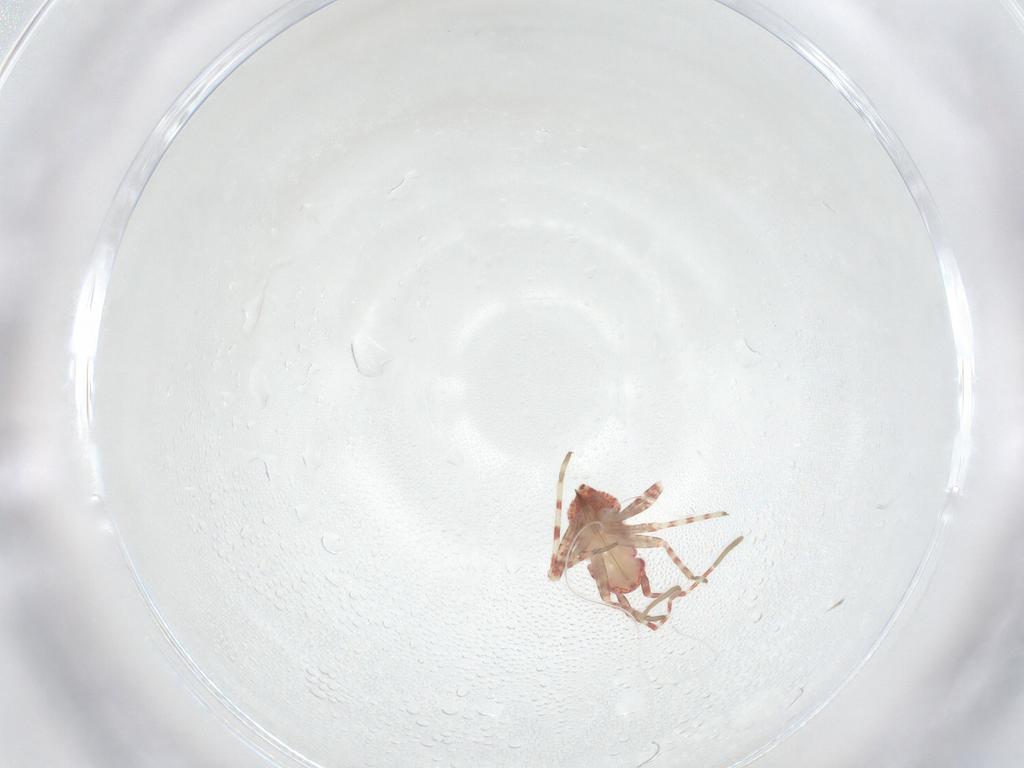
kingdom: Animalia
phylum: Arthropoda
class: Insecta
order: Hemiptera
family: Miridae
